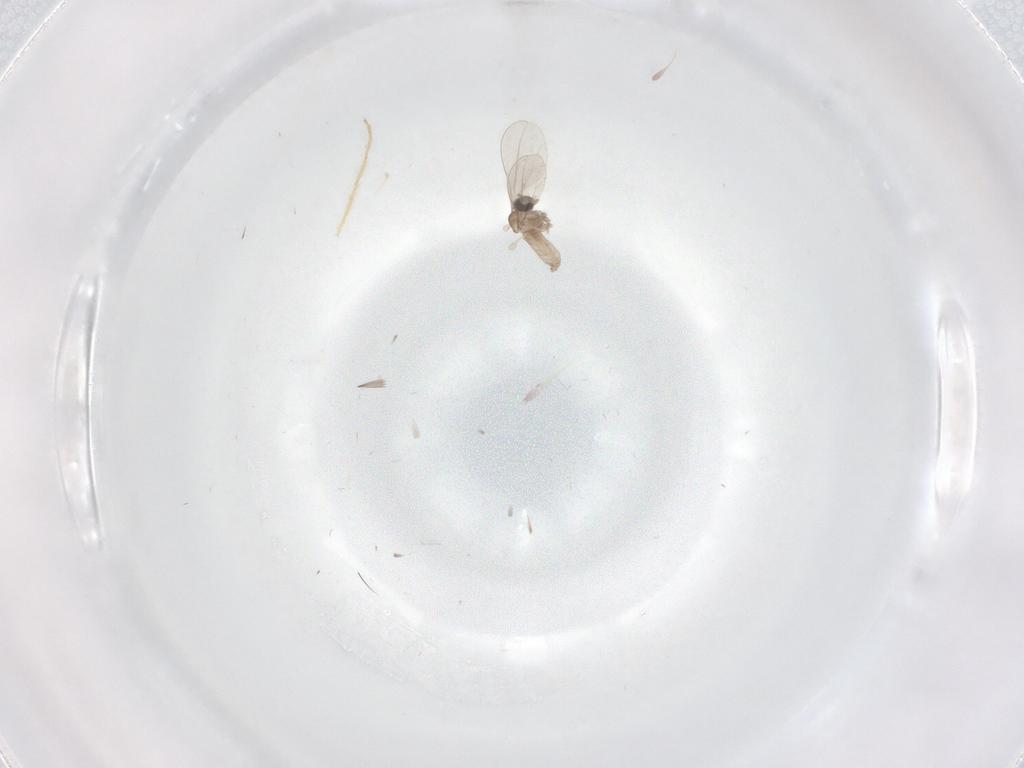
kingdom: Animalia
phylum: Arthropoda
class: Insecta
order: Diptera
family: Cecidomyiidae
